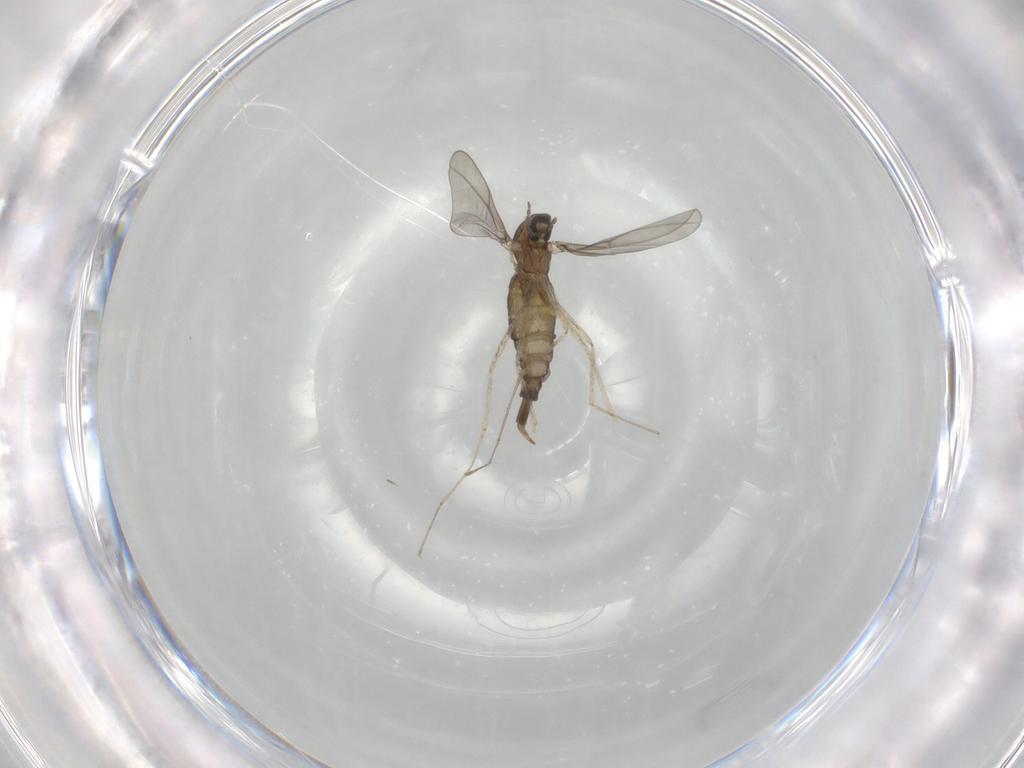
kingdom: Animalia
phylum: Arthropoda
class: Insecta
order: Diptera
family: Cecidomyiidae
